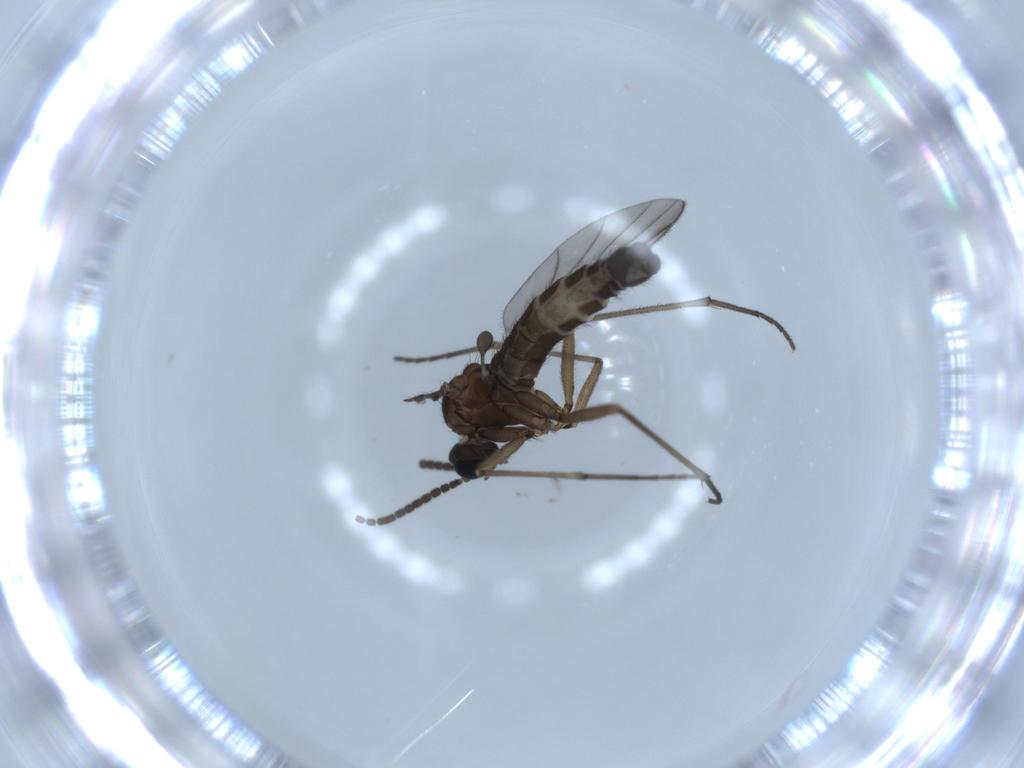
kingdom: Animalia
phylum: Arthropoda
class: Insecta
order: Diptera
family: Sciaridae
